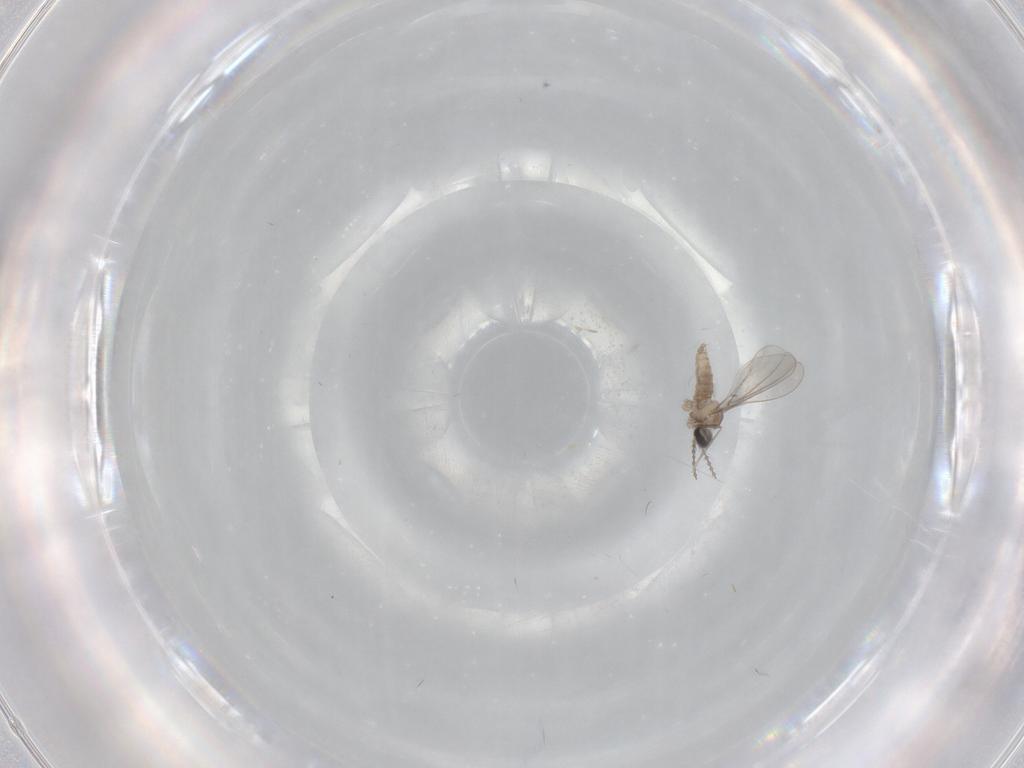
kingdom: Animalia
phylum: Arthropoda
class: Insecta
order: Diptera
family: Cecidomyiidae
